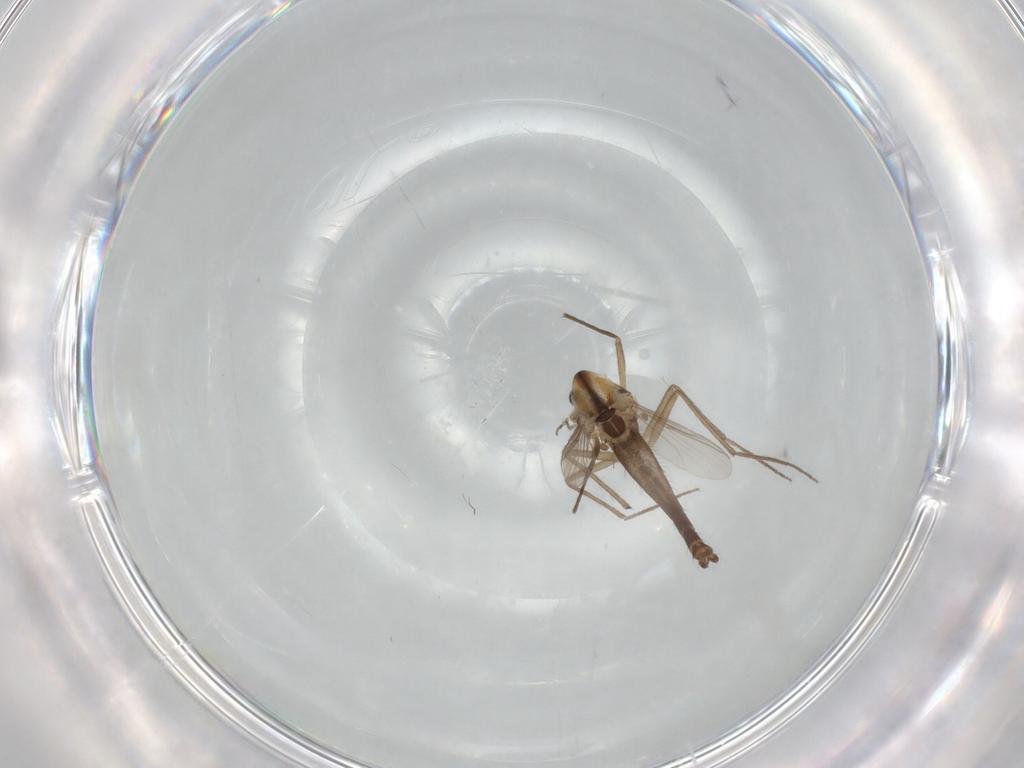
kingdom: Animalia
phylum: Arthropoda
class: Insecta
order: Diptera
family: Chironomidae
